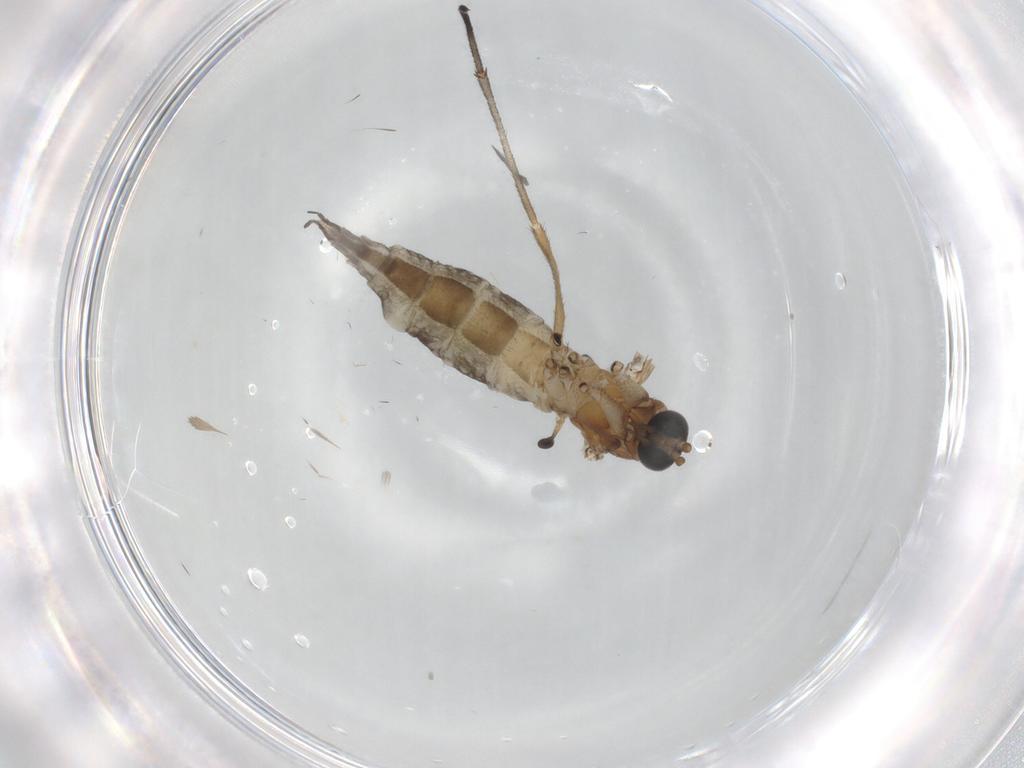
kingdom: Animalia
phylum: Arthropoda
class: Insecta
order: Diptera
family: Sciaridae
